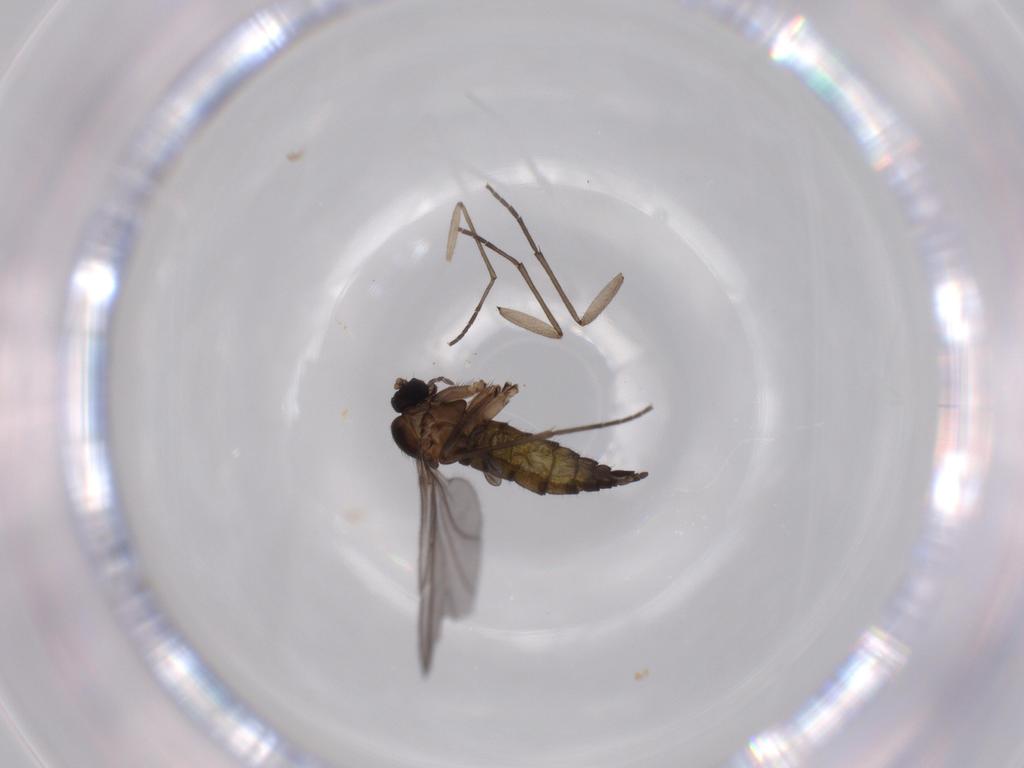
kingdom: Animalia
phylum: Arthropoda
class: Insecta
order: Diptera
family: Sciaridae
